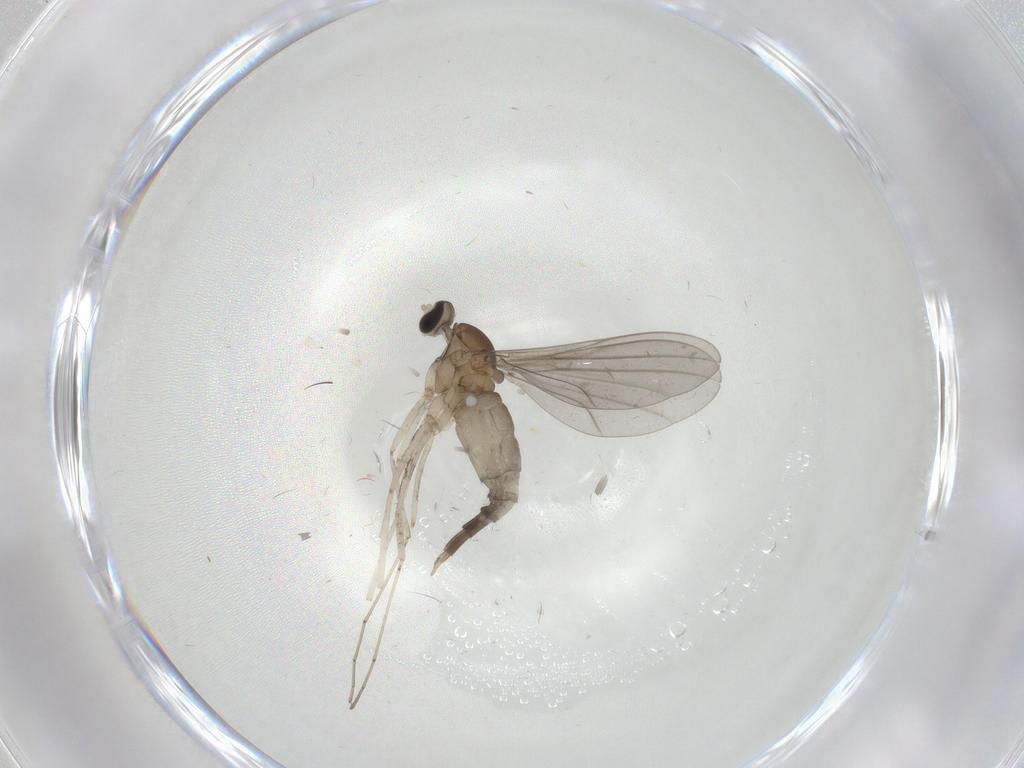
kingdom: Animalia
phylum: Arthropoda
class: Insecta
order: Diptera
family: Cecidomyiidae
